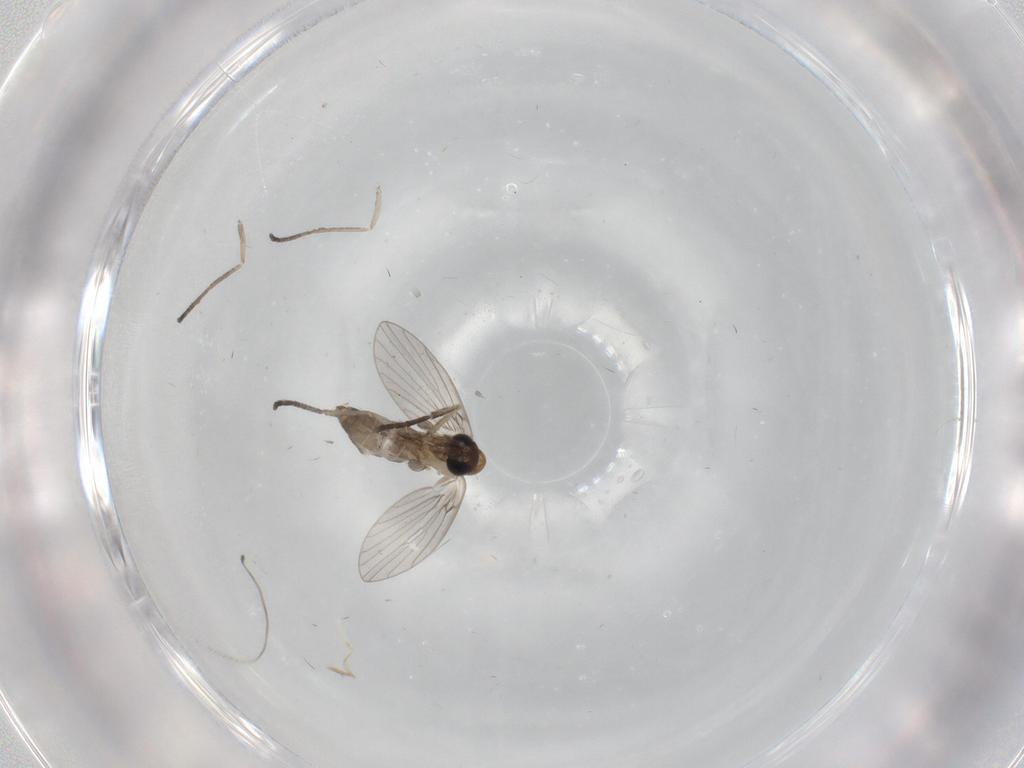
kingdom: Animalia
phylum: Arthropoda
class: Insecta
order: Diptera
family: Psychodidae
